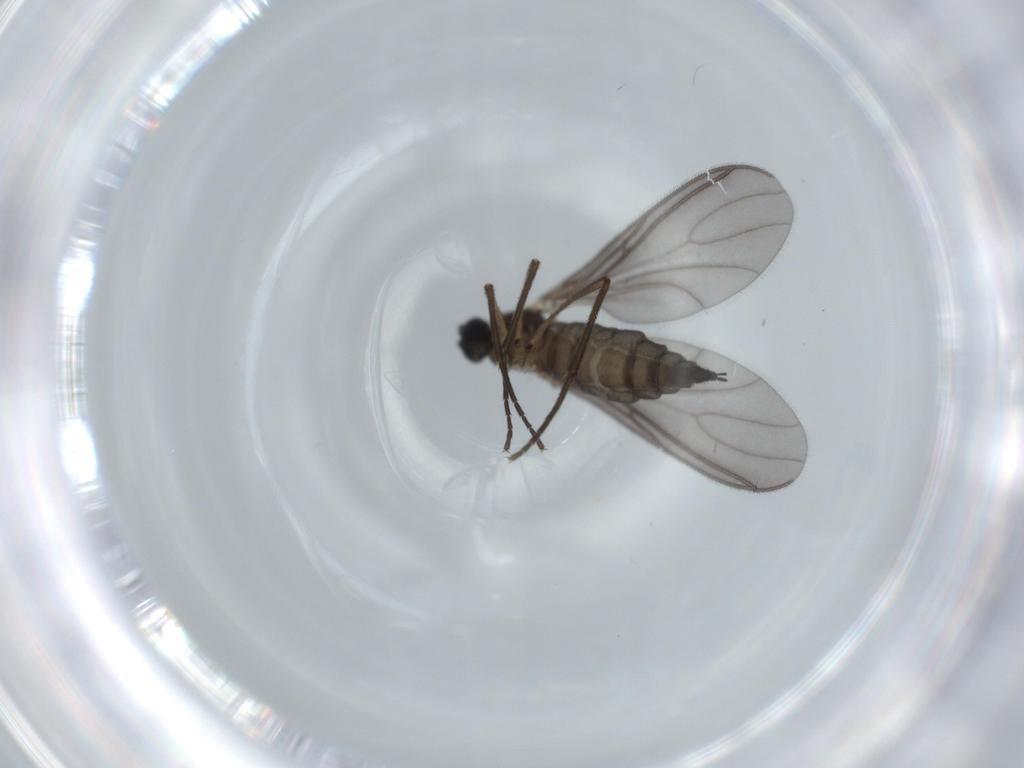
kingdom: Animalia
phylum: Arthropoda
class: Insecta
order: Diptera
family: Sciaridae
